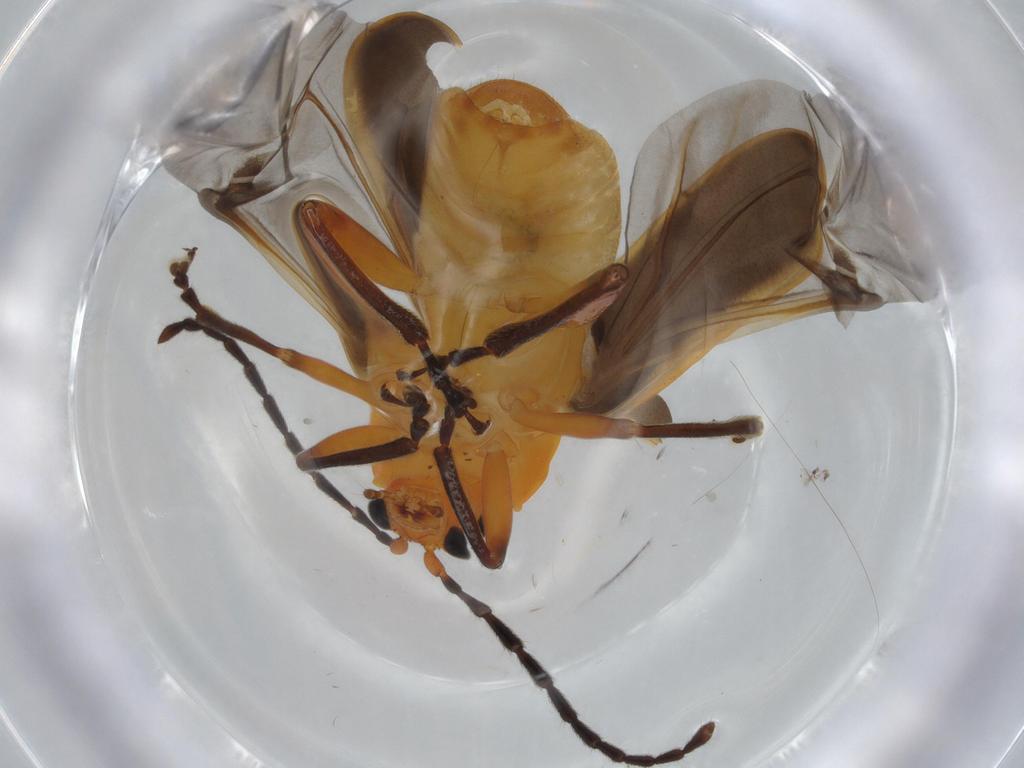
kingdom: Animalia
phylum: Arthropoda
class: Insecta
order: Coleoptera
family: Chrysomelidae
